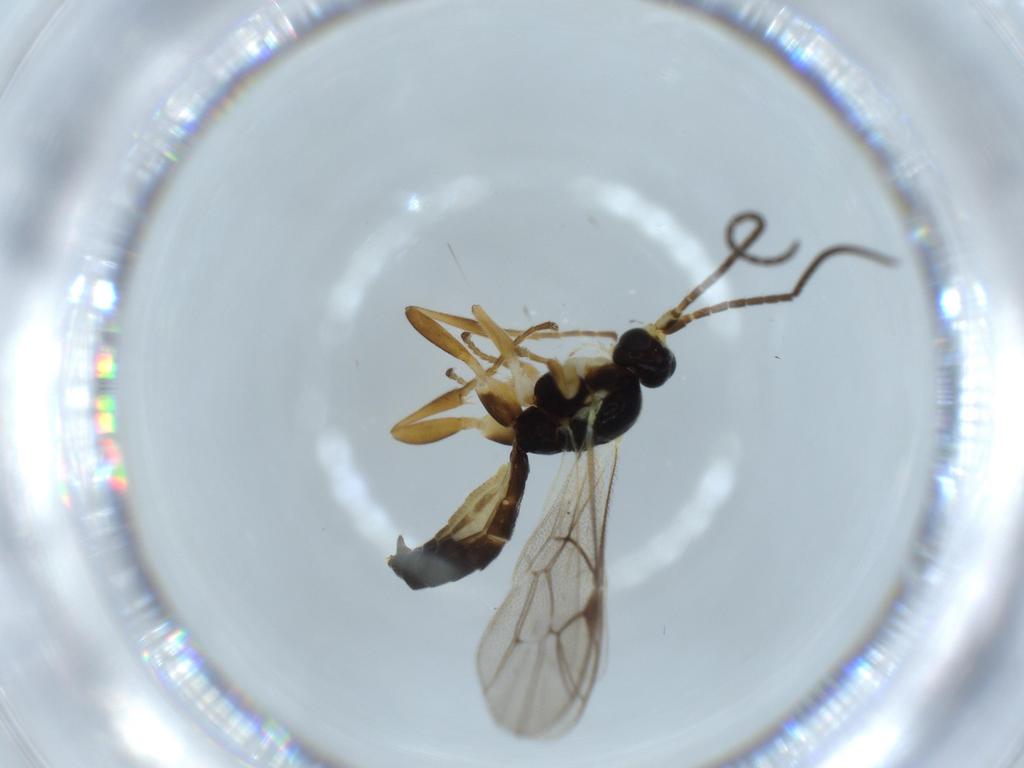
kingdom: Animalia
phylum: Arthropoda
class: Insecta
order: Hymenoptera
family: Ichneumonidae
